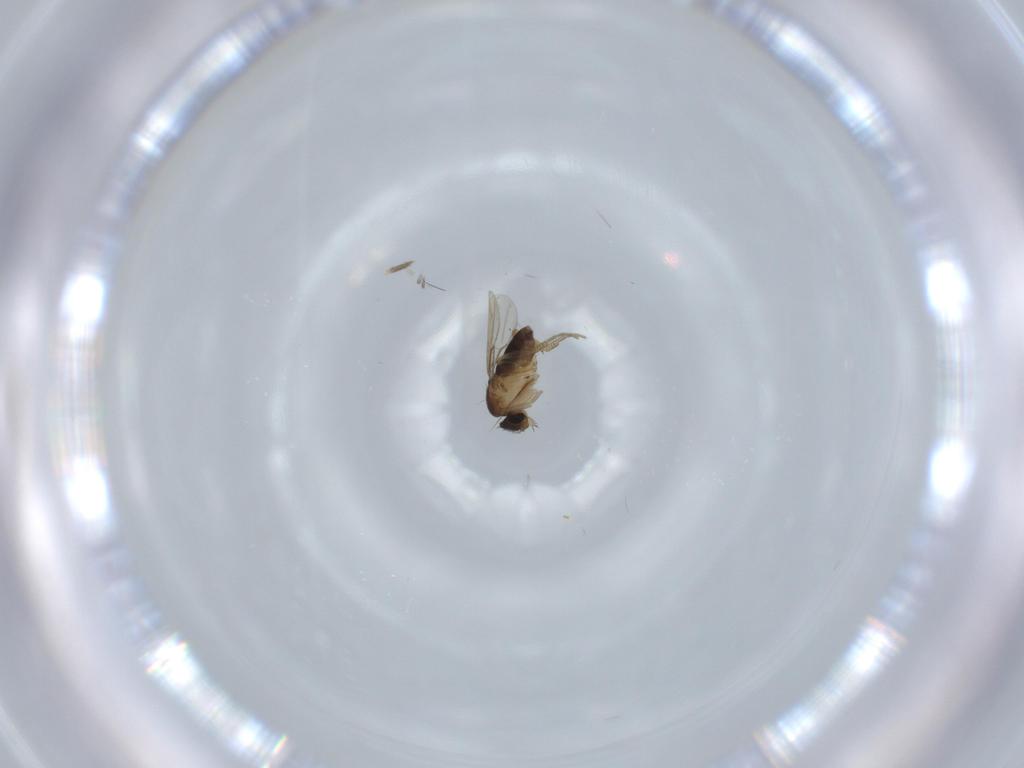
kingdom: Animalia
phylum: Arthropoda
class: Insecta
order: Diptera
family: Phoridae
